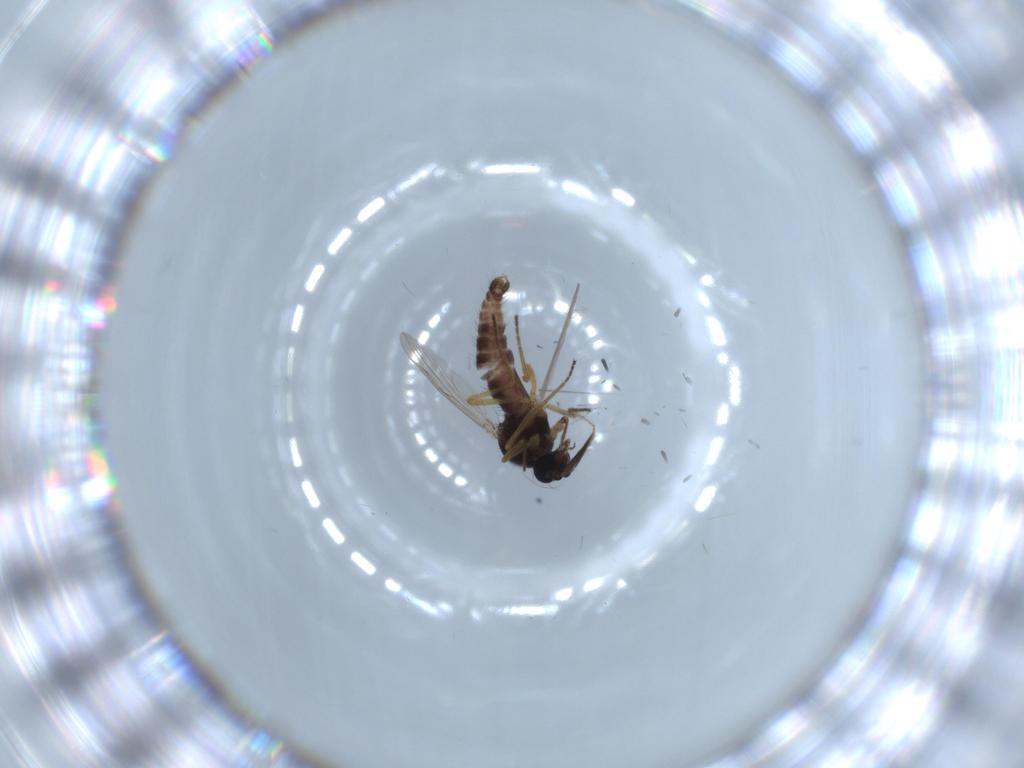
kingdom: Animalia
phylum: Arthropoda
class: Insecta
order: Diptera
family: Ceratopogonidae
